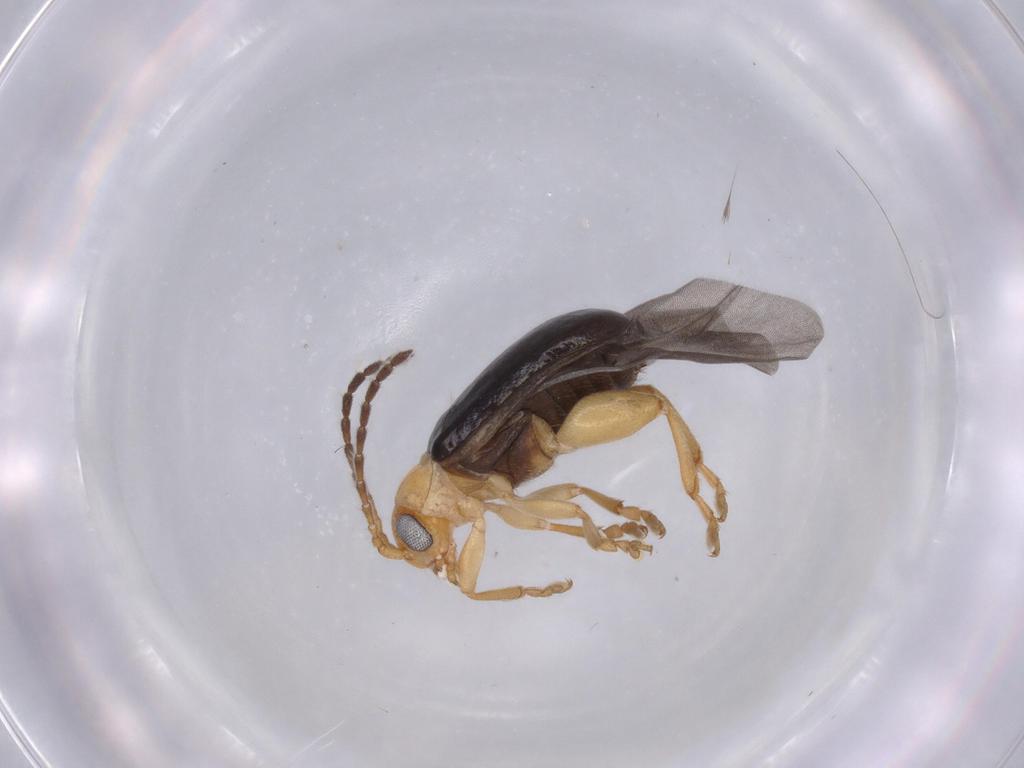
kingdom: Animalia
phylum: Arthropoda
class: Insecta
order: Coleoptera
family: Chrysomelidae
